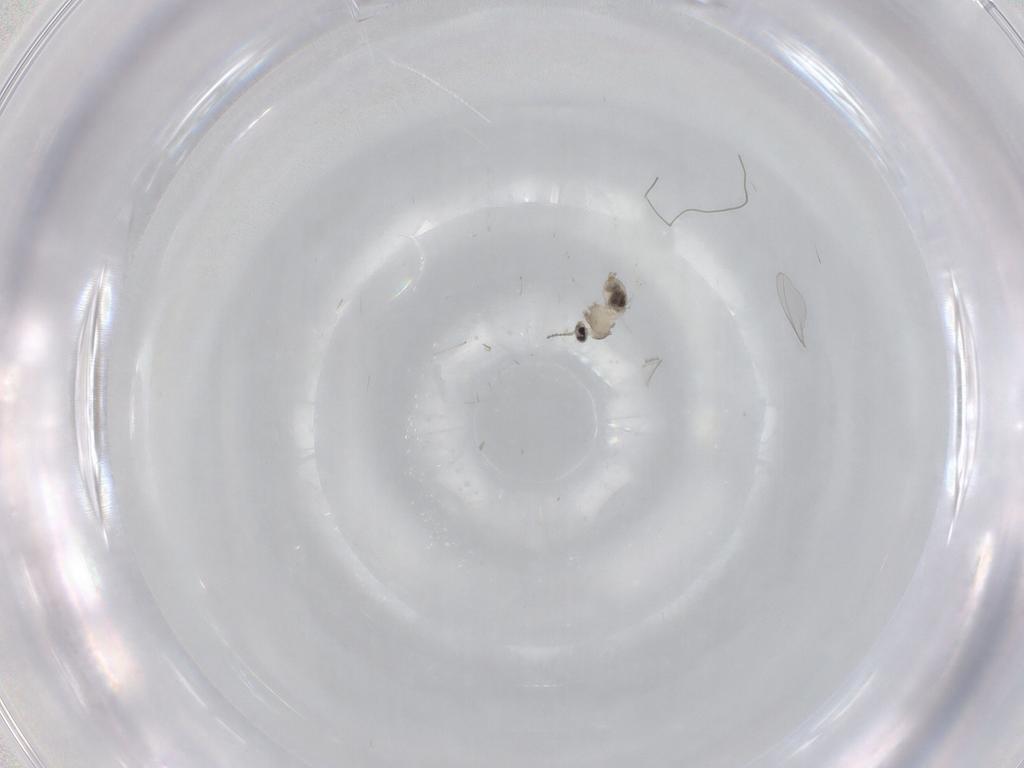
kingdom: Animalia
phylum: Arthropoda
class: Insecta
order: Diptera
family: Cecidomyiidae
